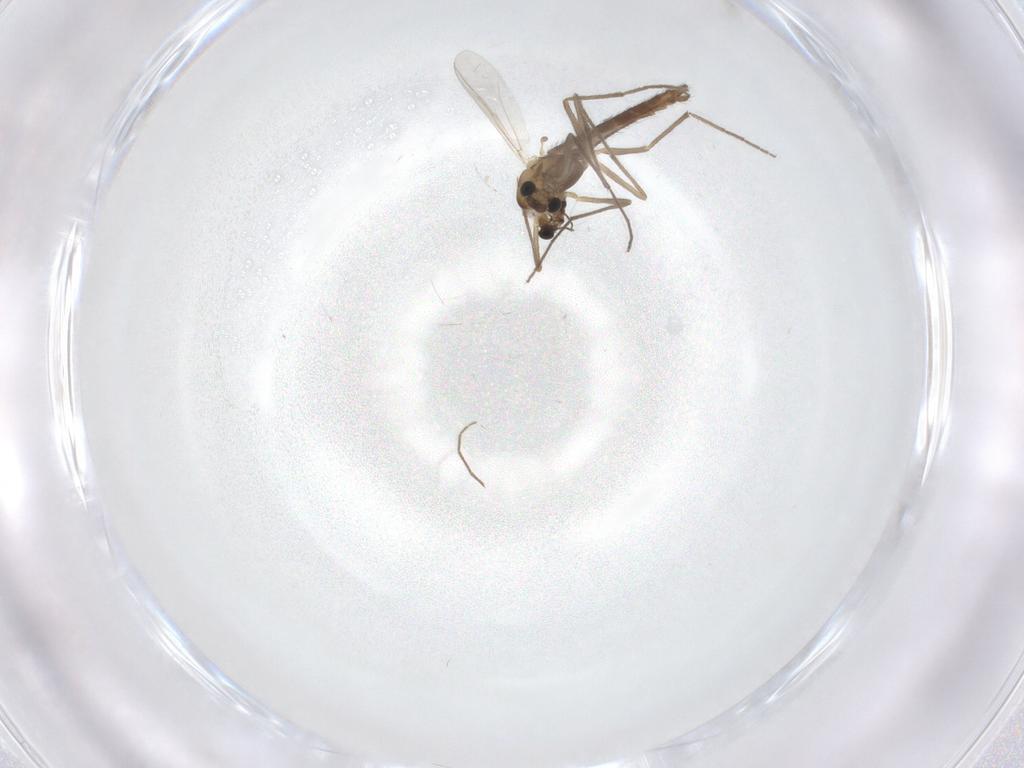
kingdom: Animalia
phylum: Arthropoda
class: Insecta
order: Diptera
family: Chironomidae
